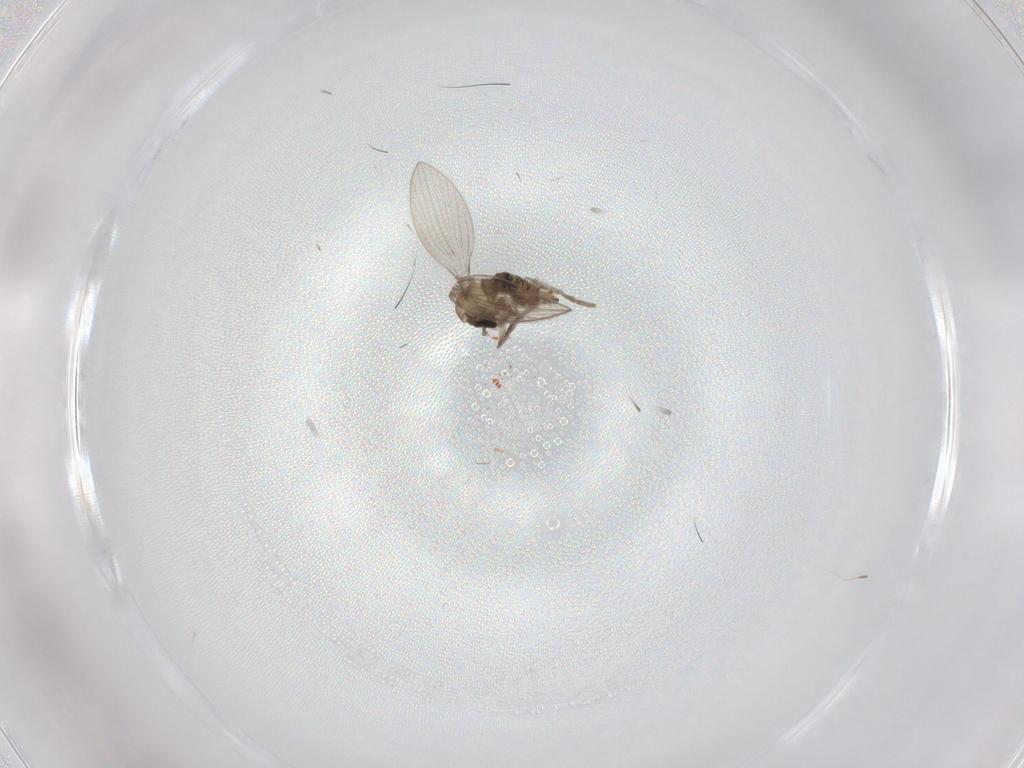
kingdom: Animalia
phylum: Arthropoda
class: Insecta
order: Diptera
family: Psychodidae
